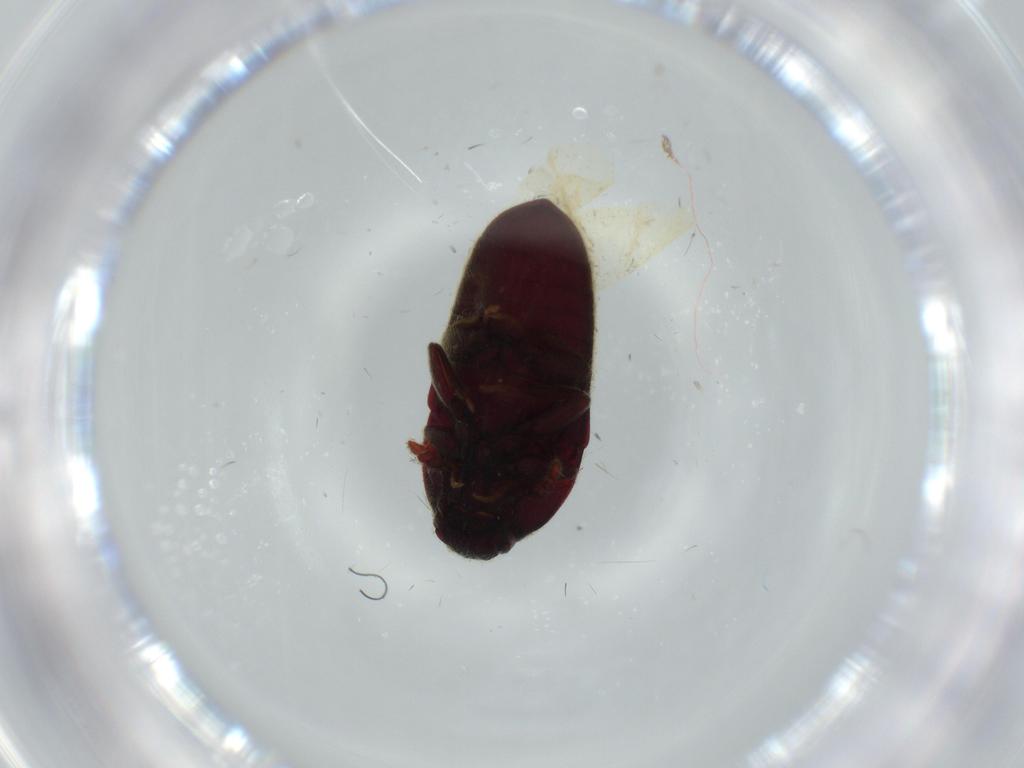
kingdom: Animalia
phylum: Arthropoda
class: Insecta
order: Coleoptera
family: Throscidae
